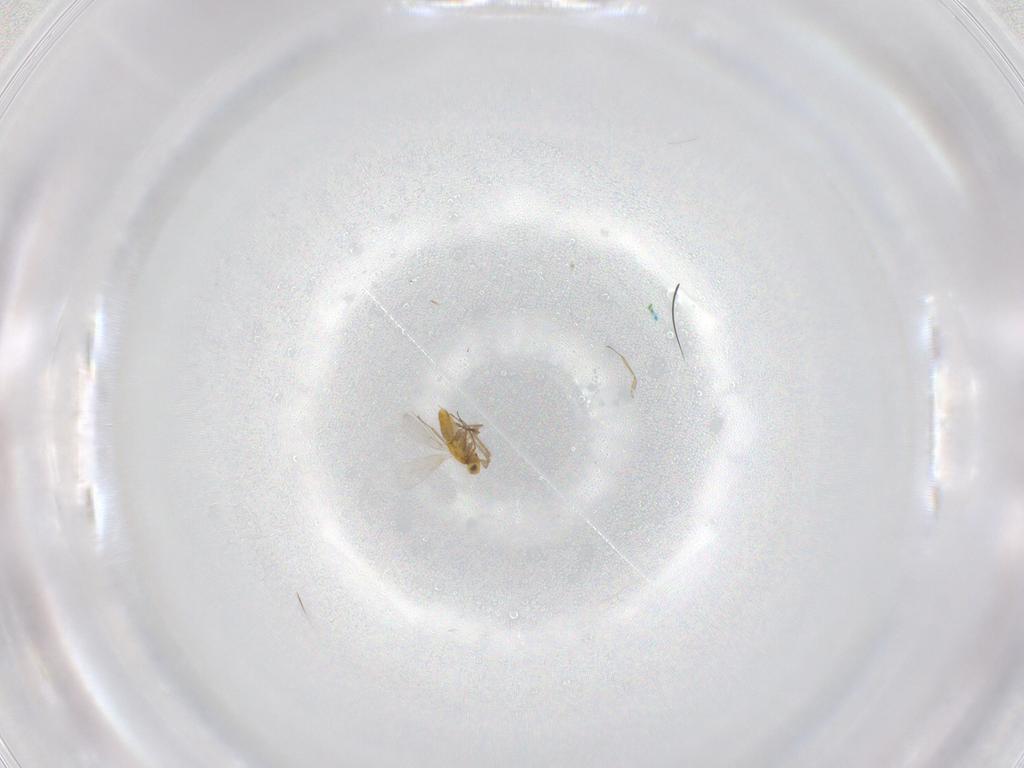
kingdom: Animalia
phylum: Arthropoda
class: Insecta
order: Hymenoptera
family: Aphelinidae
